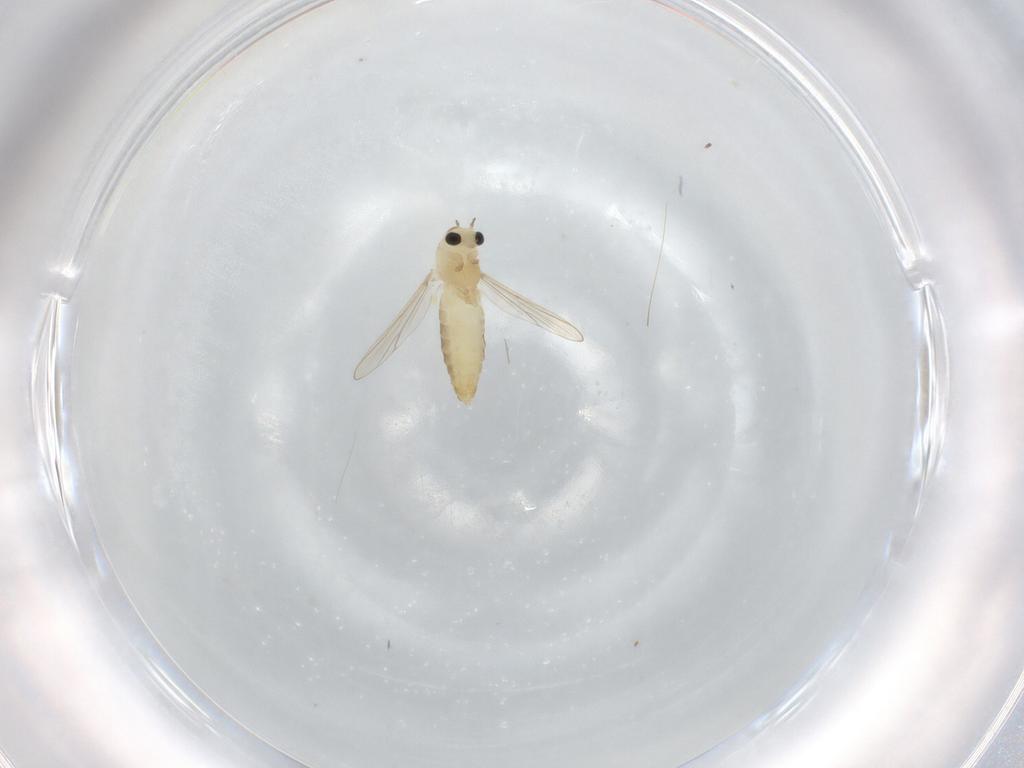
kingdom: Animalia
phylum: Arthropoda
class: Insecta
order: Diptera
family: Chironomidae
